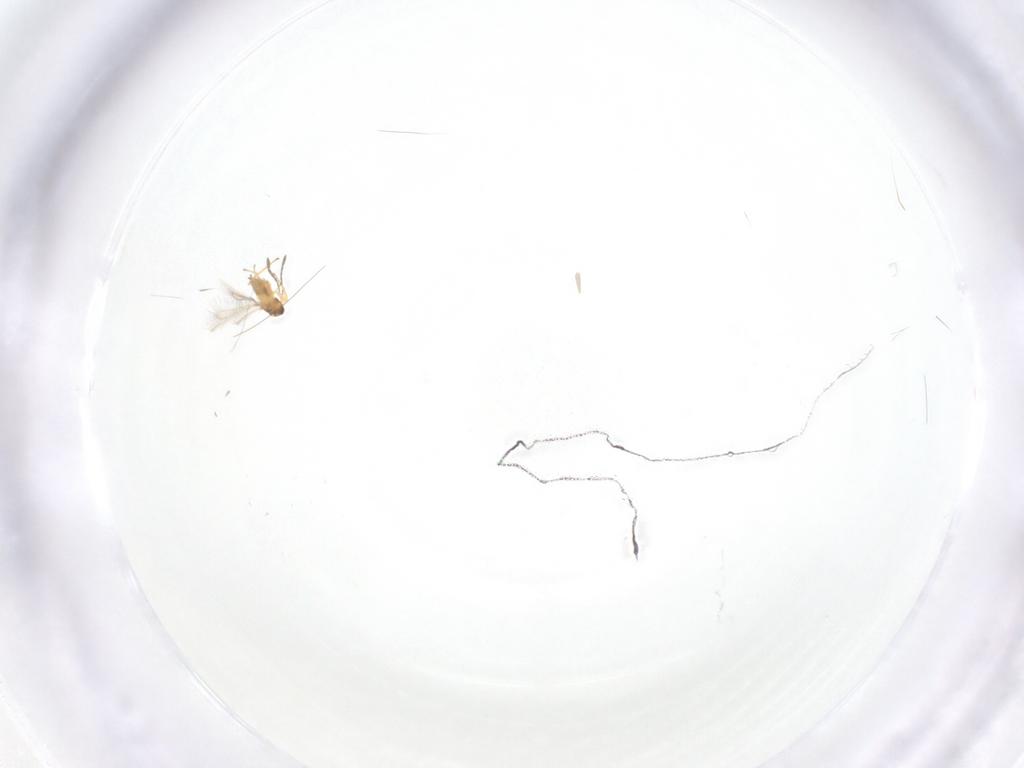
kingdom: Animalia
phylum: Arthropoda
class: Insecta
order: Hymenoptera
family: Mymaridae
